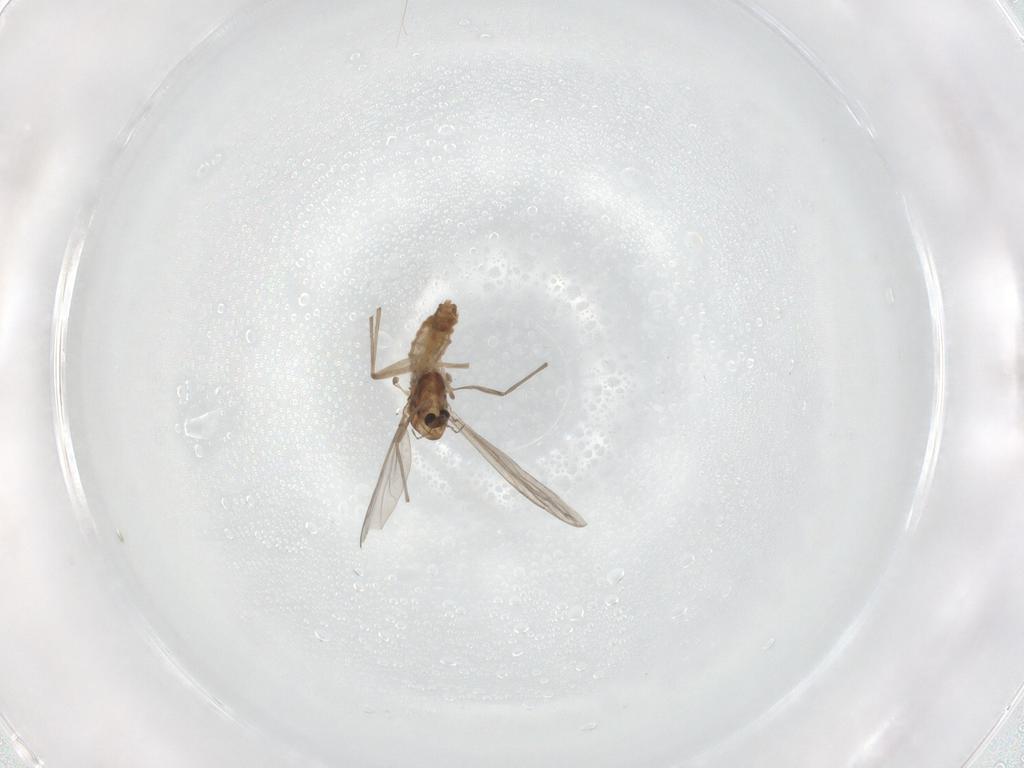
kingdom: Animalia
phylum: Arthropoda
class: Insecta
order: Diptera
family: Chironomidae
